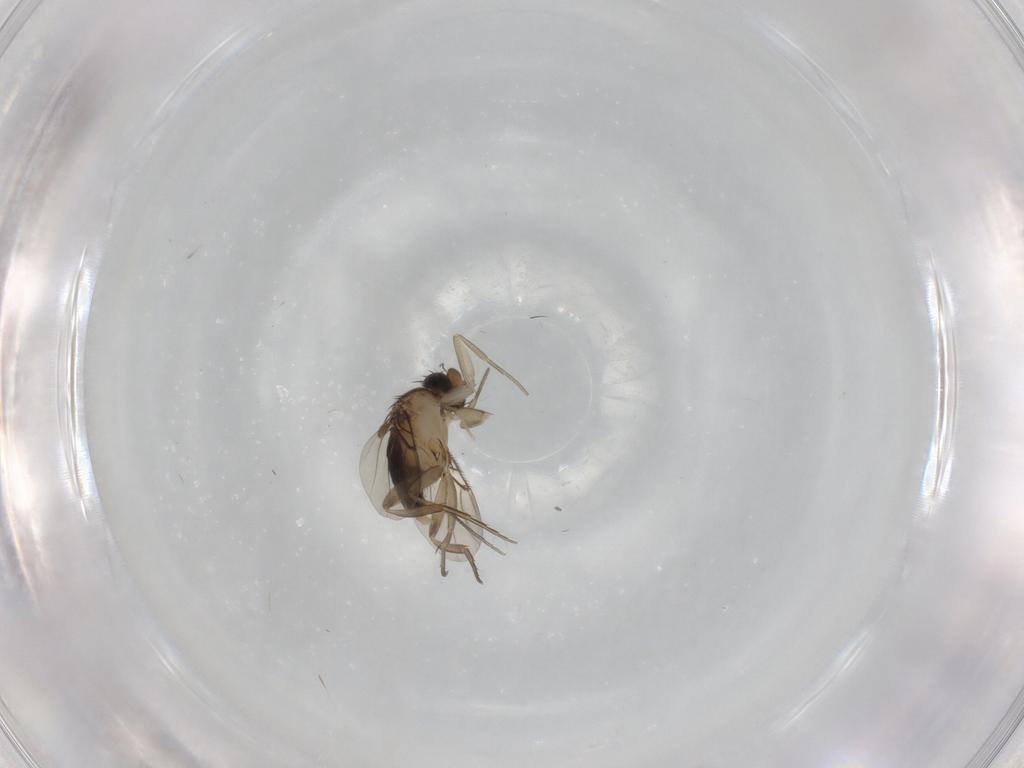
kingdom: Animalia
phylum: Arthropoda
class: Insecta
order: Diptera
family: Phoridae
